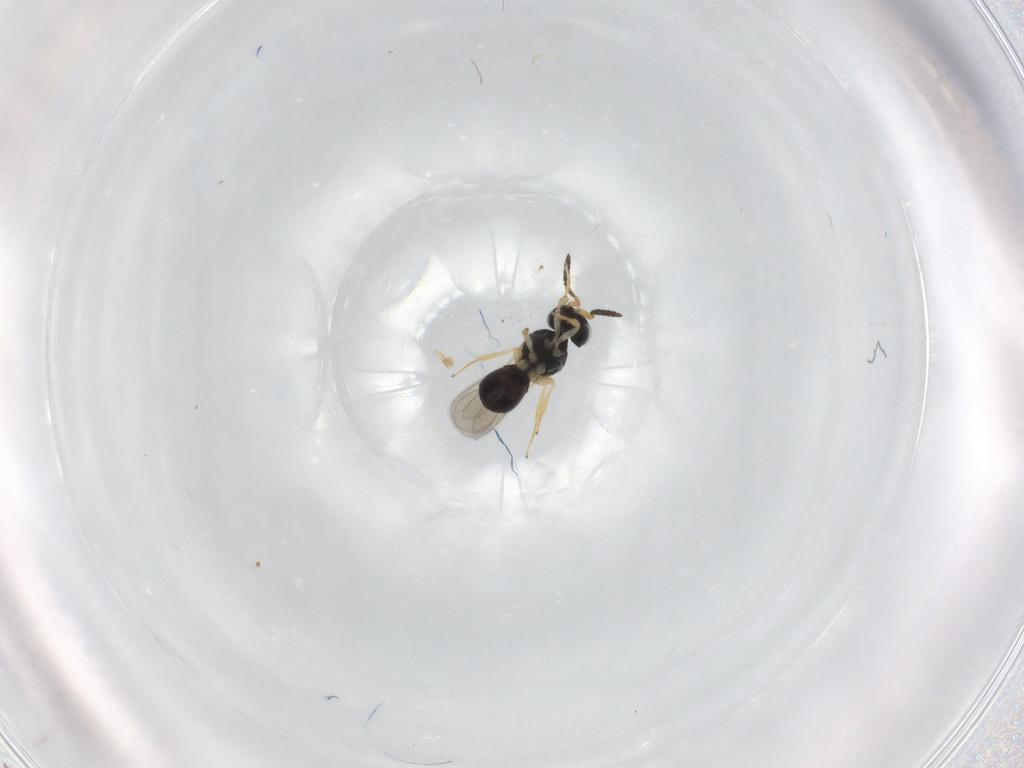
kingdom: Animalia
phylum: Arthropoda
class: Insecta
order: Hymenoptera
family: Scelionidae
